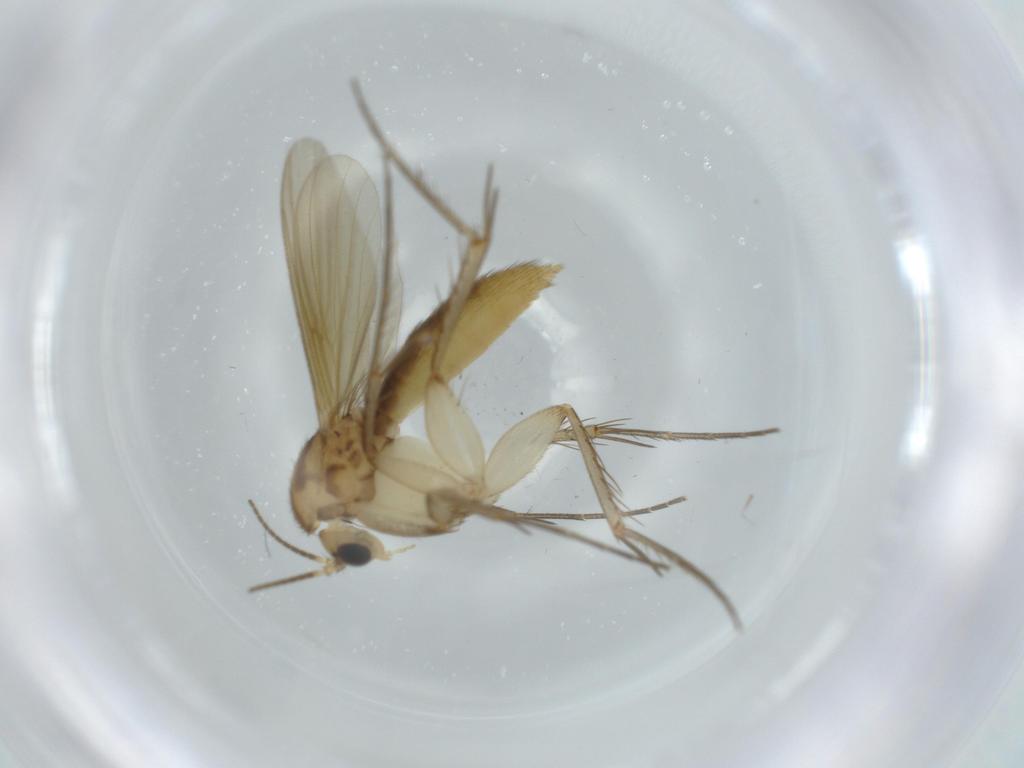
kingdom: Animalia
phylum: Arthropoda
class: Insecta
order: Diptera
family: Mycetophilidae
